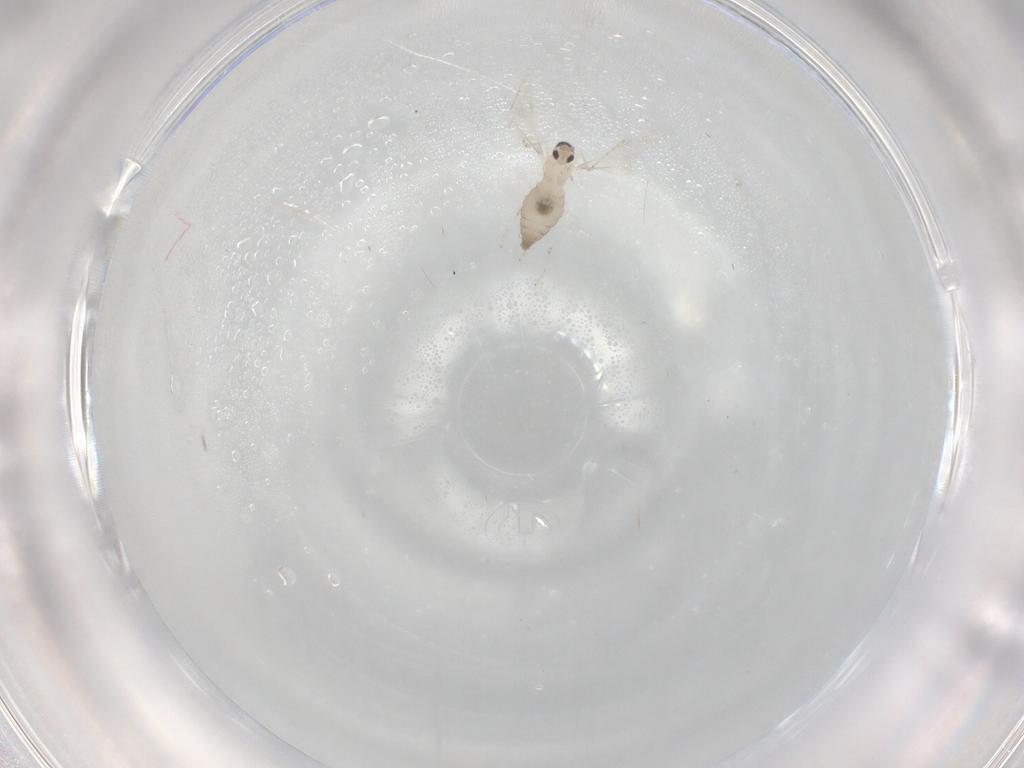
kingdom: Animalia
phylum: Arthropoda
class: Insecta
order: Diptera
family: Cecidomyiidae
